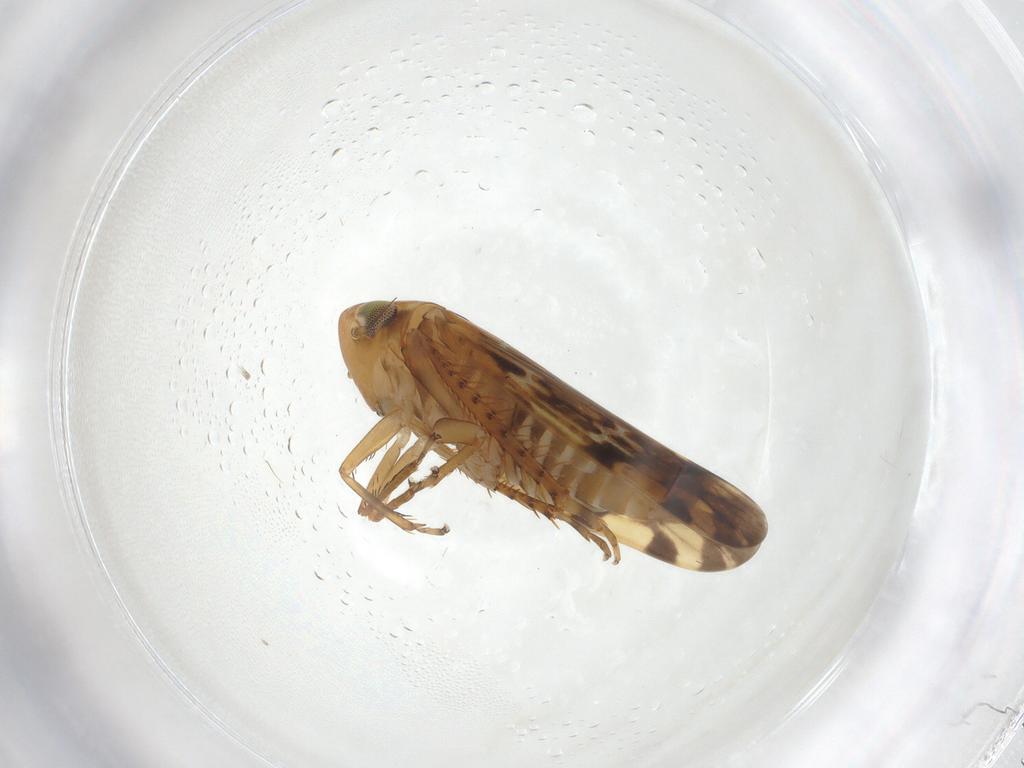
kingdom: Animalia
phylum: Arthropoda
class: Insecta
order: Hemiptera
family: Cicadellidae
